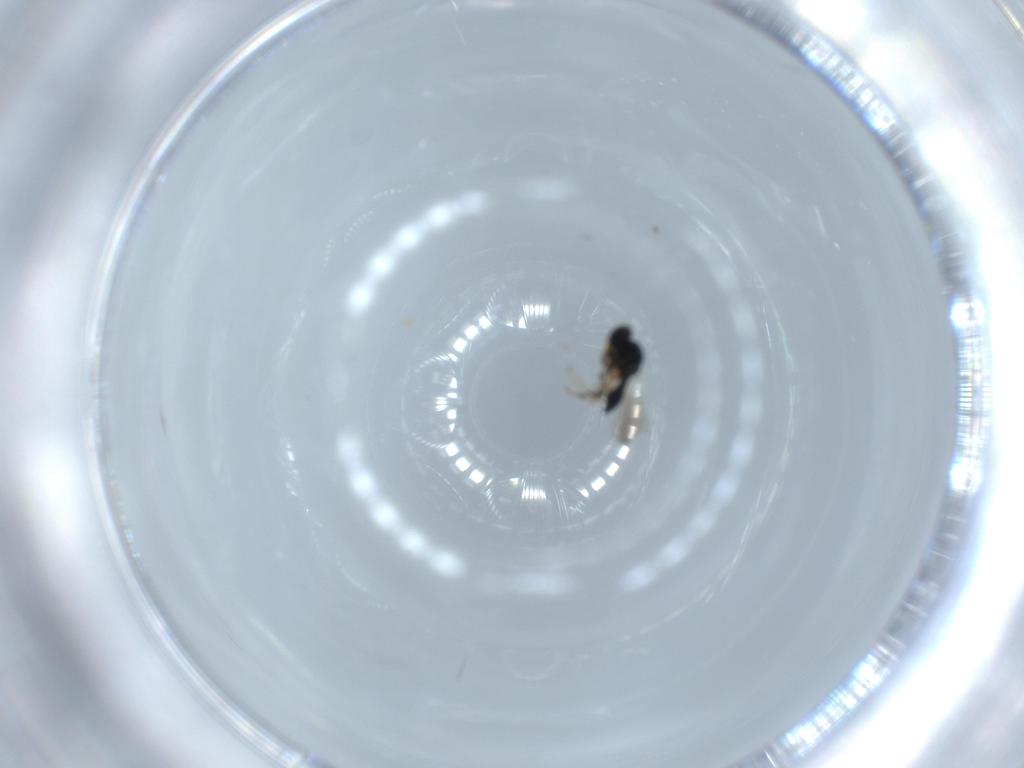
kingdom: Animalia
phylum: Arthropoda
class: Insecta
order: Hymenoptera
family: Platygastridae
